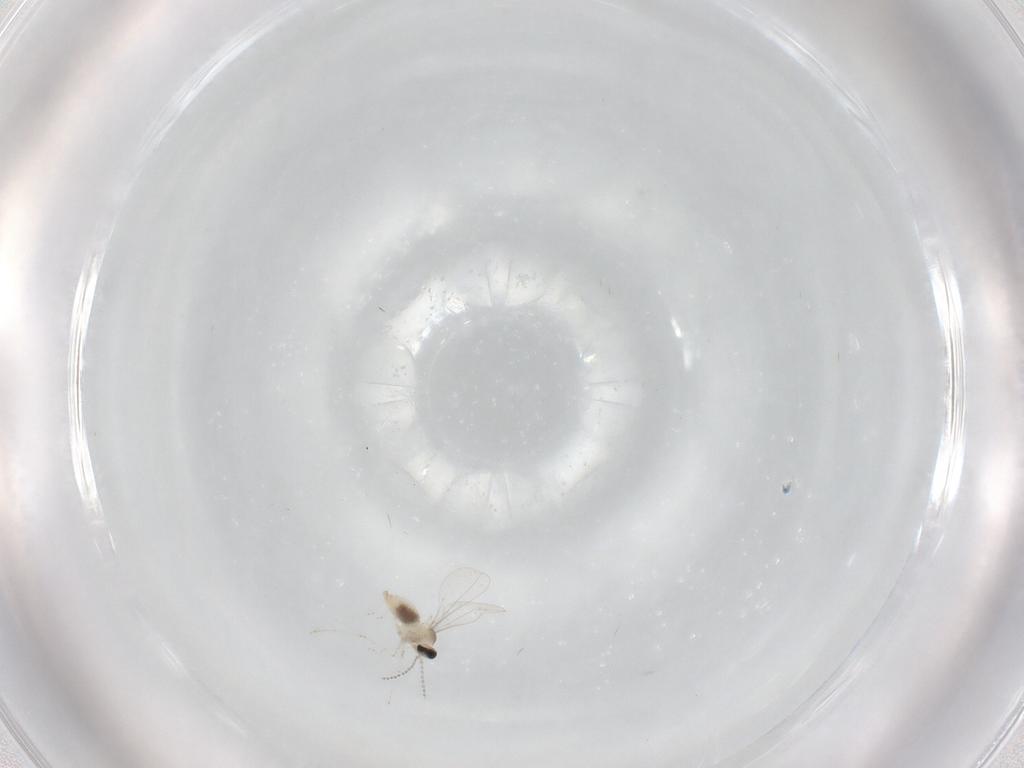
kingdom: Animalia
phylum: Arthropoda
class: Insecta
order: Diptera
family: Cecidomyiidae
